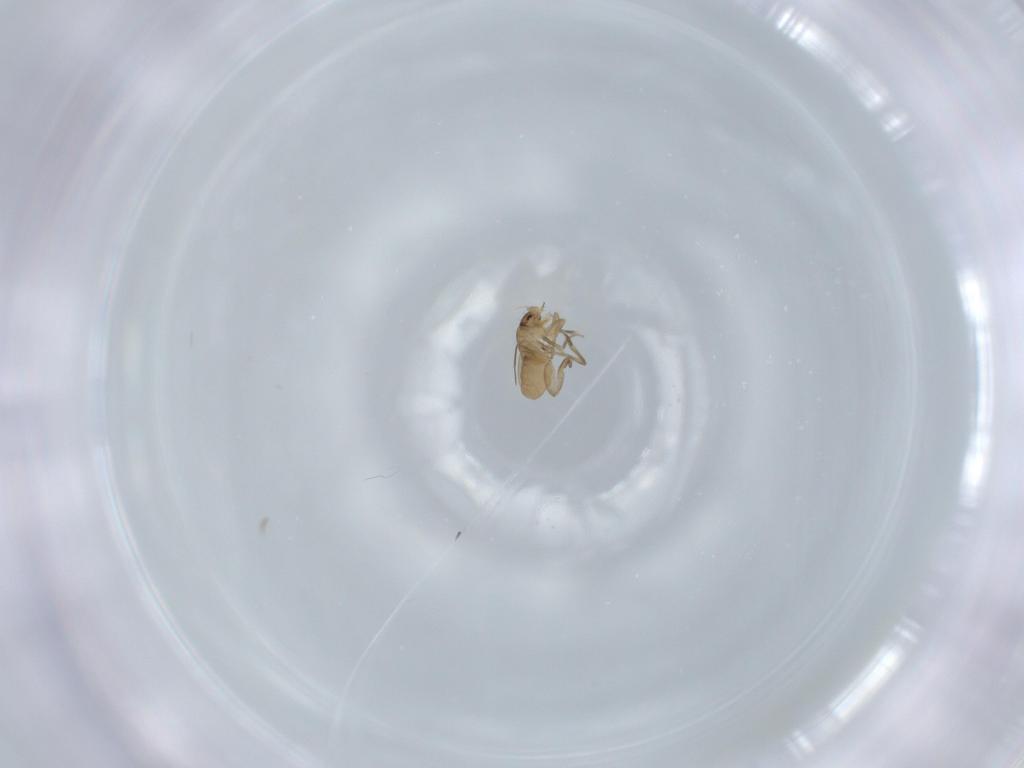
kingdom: Animalia
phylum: Arthropoda
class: Insecta
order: Diptera
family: Phoridae
